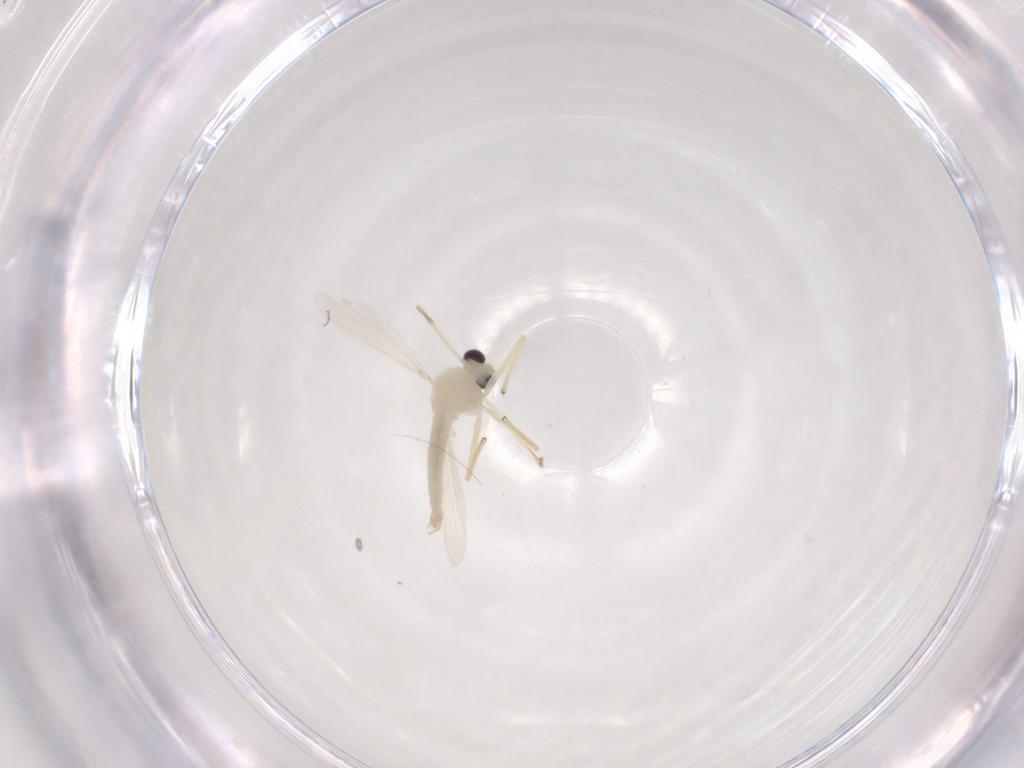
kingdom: Animalia
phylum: Arthropoda
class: Insecta
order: Diptera
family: Chironomidae
